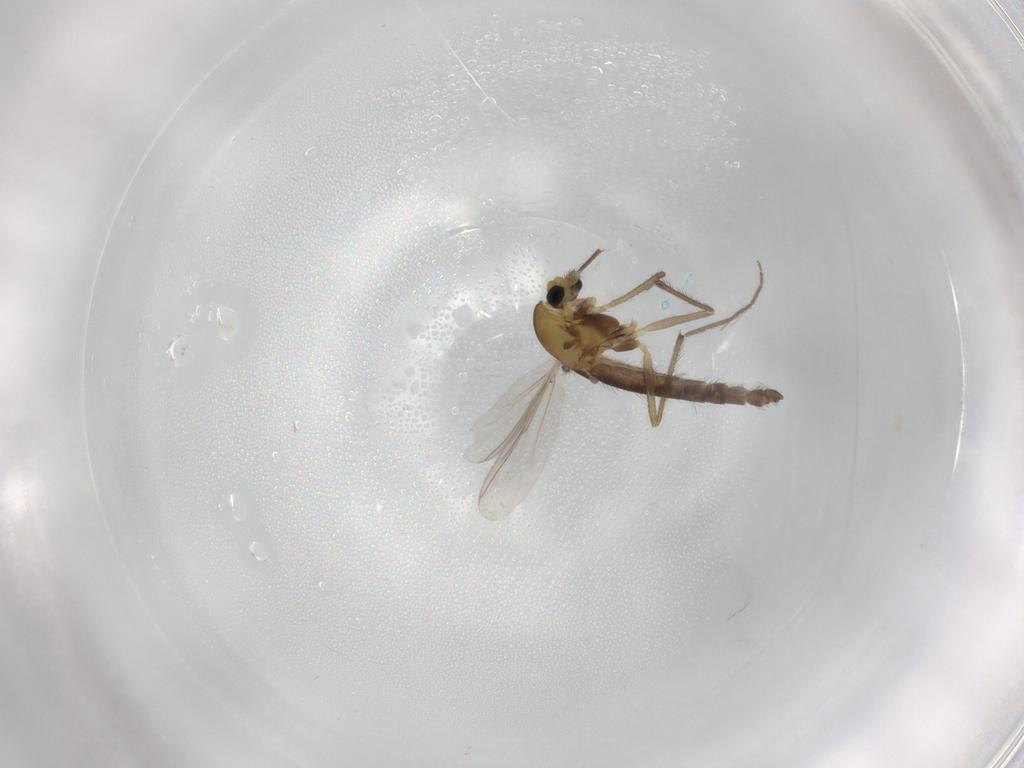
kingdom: Animalia
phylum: Arthropoda
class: Insecta
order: Diptera
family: Chironomidae
